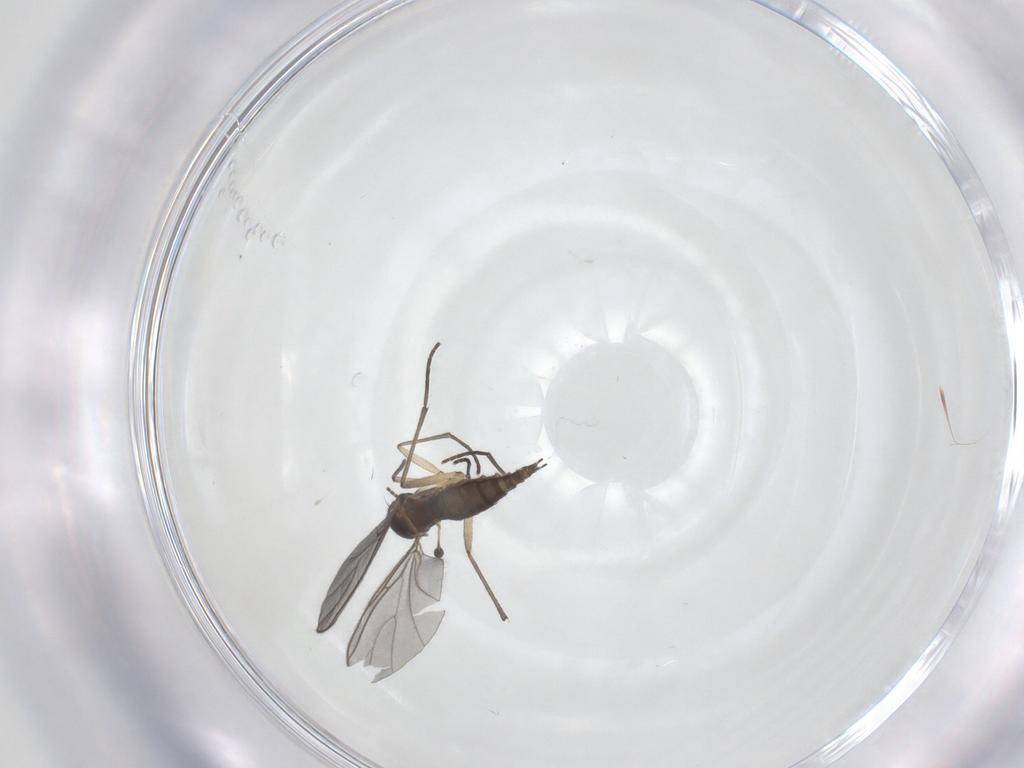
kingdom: Animalia
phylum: Arthropoda
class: Insecta
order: Diptera
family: Sciaridae
